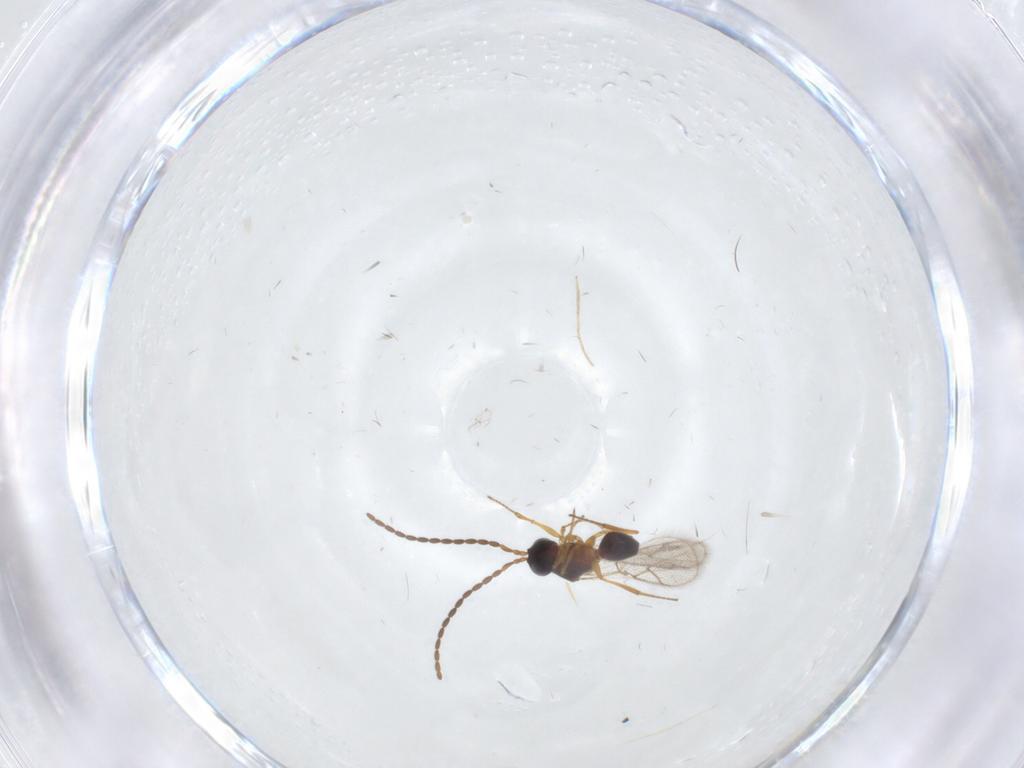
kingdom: Animalia
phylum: Arthropoda
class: Insecta
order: Hymenoptera
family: Figitidae
